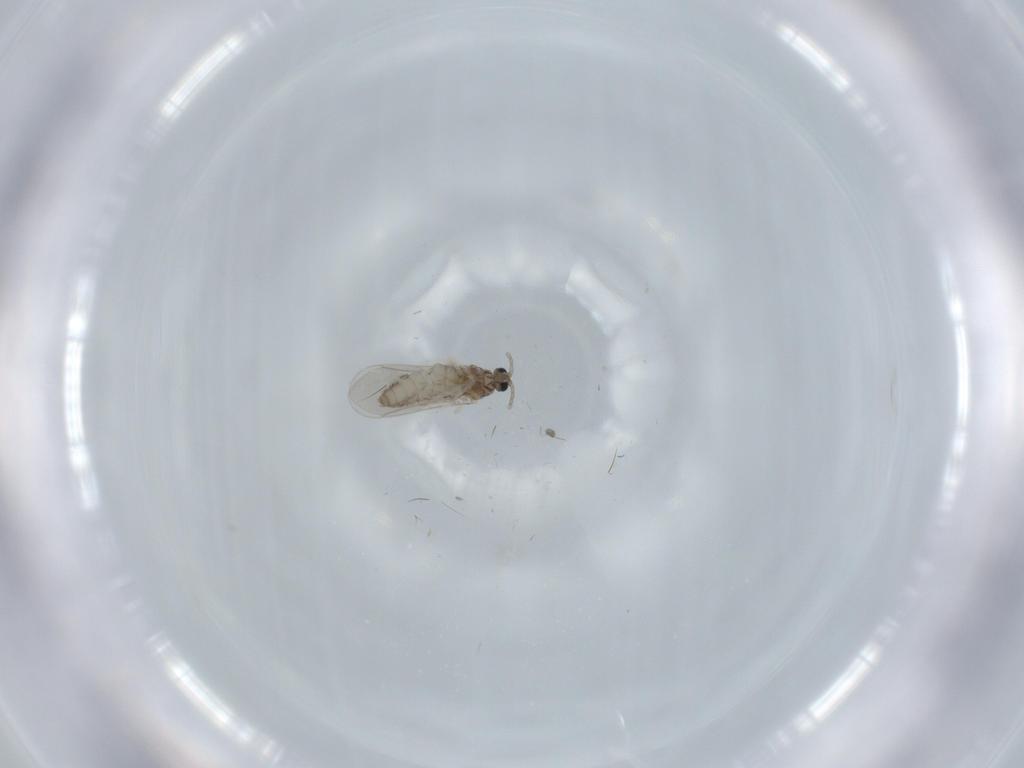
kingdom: Animalia
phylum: Arthropoda
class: Insecta
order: Diptera
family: Cecidomyiidae
